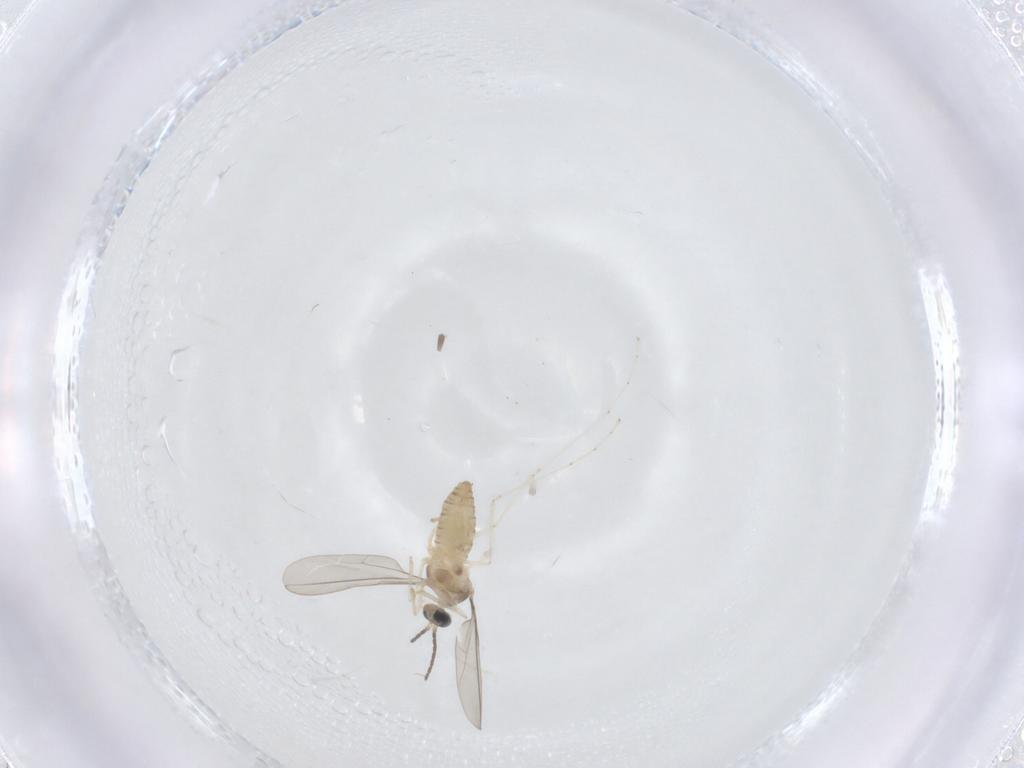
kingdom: Animalia
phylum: Arthropoda
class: Insecta
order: Diptera
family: Cecidomyiidae
